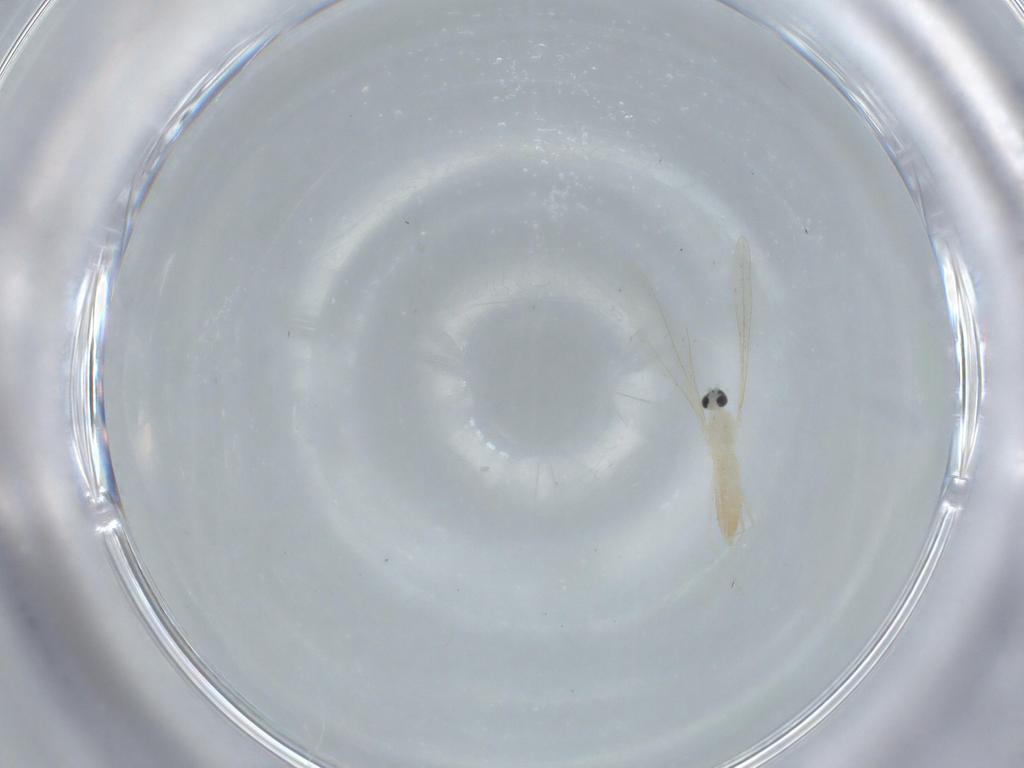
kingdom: Animalia
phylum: Arthropoda
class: Insecta
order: Diptera
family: Cecidomyiidae
